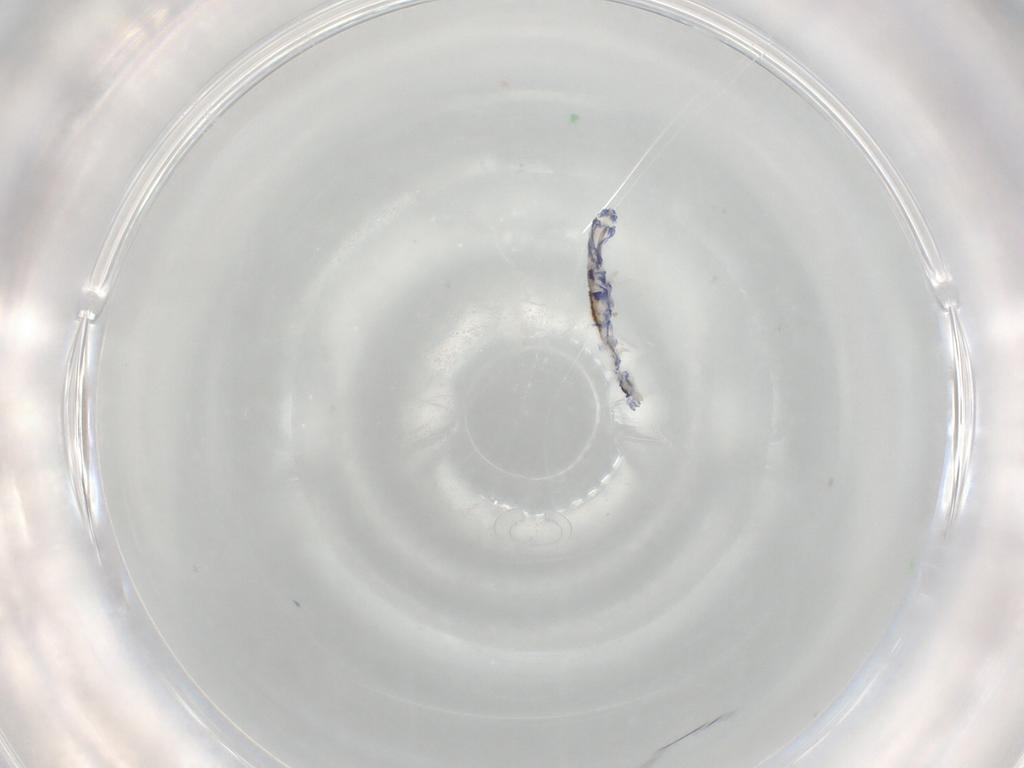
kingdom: Animalia
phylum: Arthropoda
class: Collembola
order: Entomobryomorpha
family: Entomobryidae
